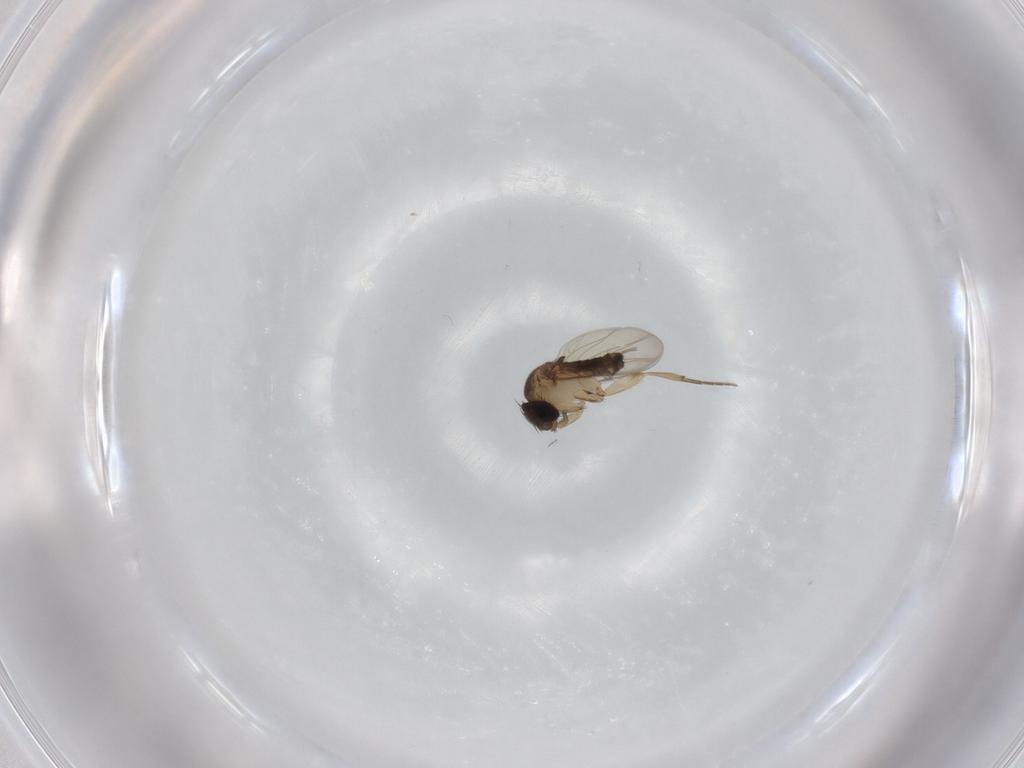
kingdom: Animalia
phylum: Arthropoda
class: Insecta
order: Diptera
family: Phoridae
